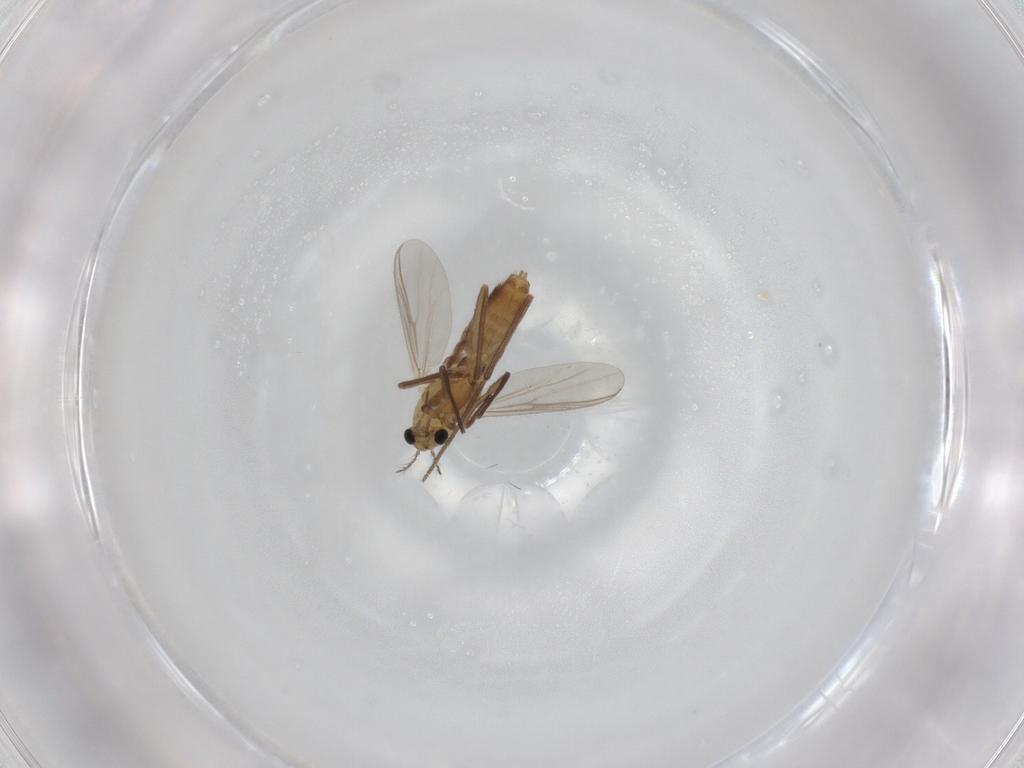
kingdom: Animalia
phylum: Arthropoda
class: Insecta
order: Diptera
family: Chironomidae
